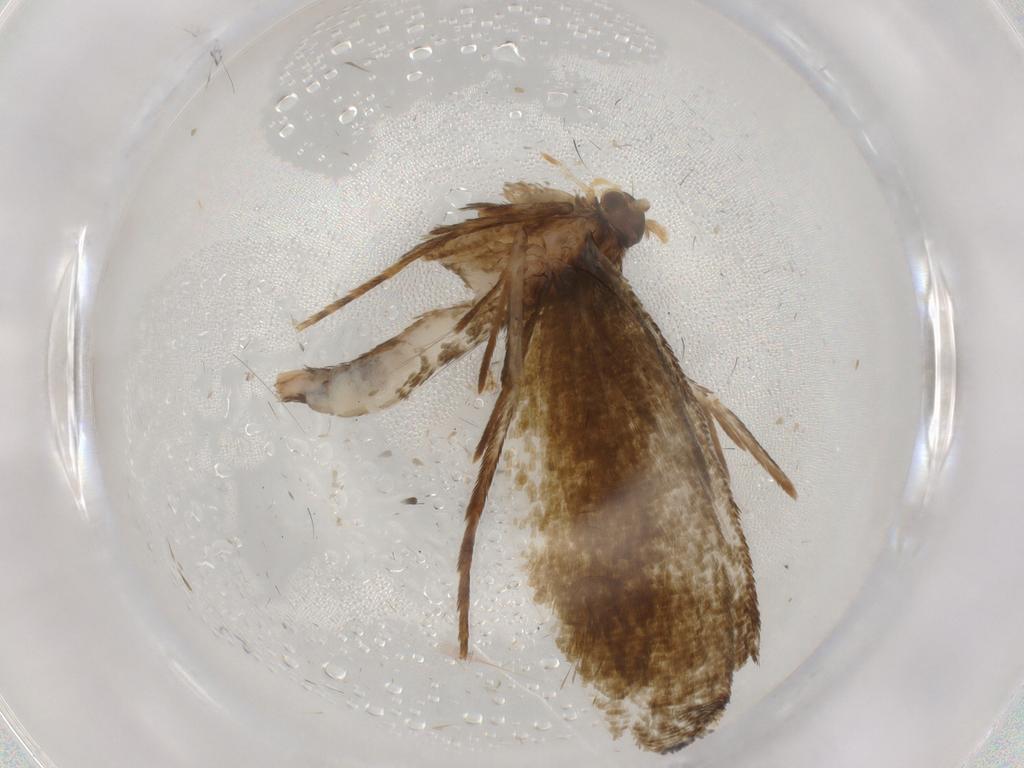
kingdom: Animalia
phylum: Arthropoda
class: Insecta
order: Lepidoptera
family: Tineidae
